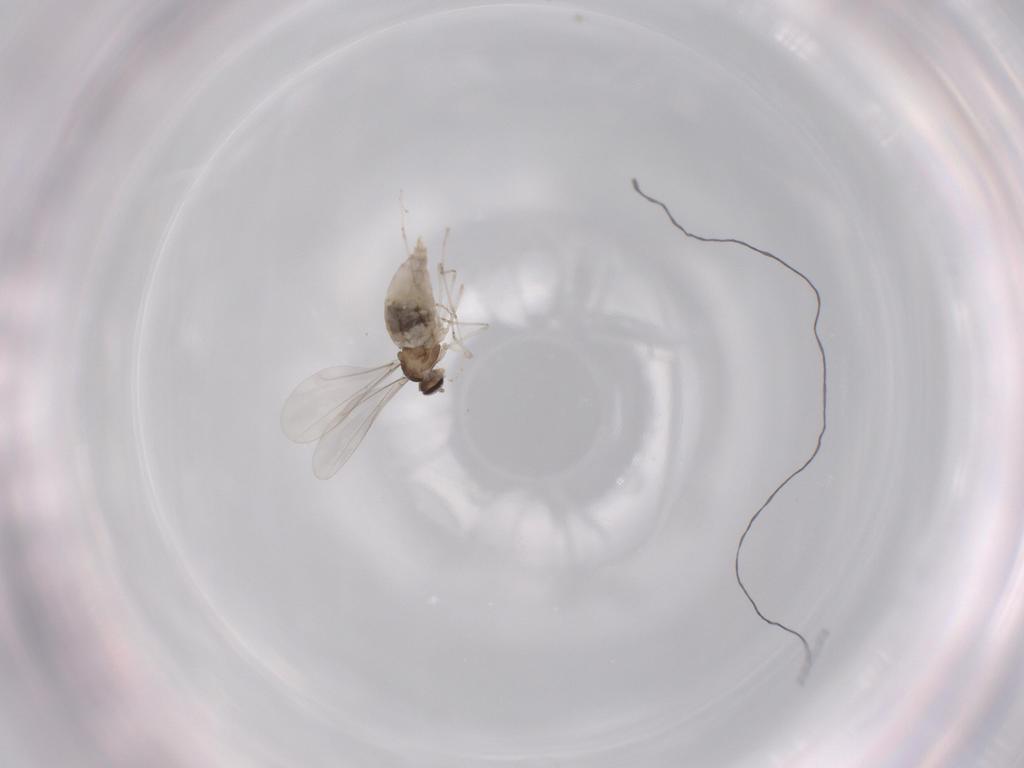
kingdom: Animalia
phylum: Arthropoda
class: Insecta
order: Diptera
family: Cecidomyiidae
